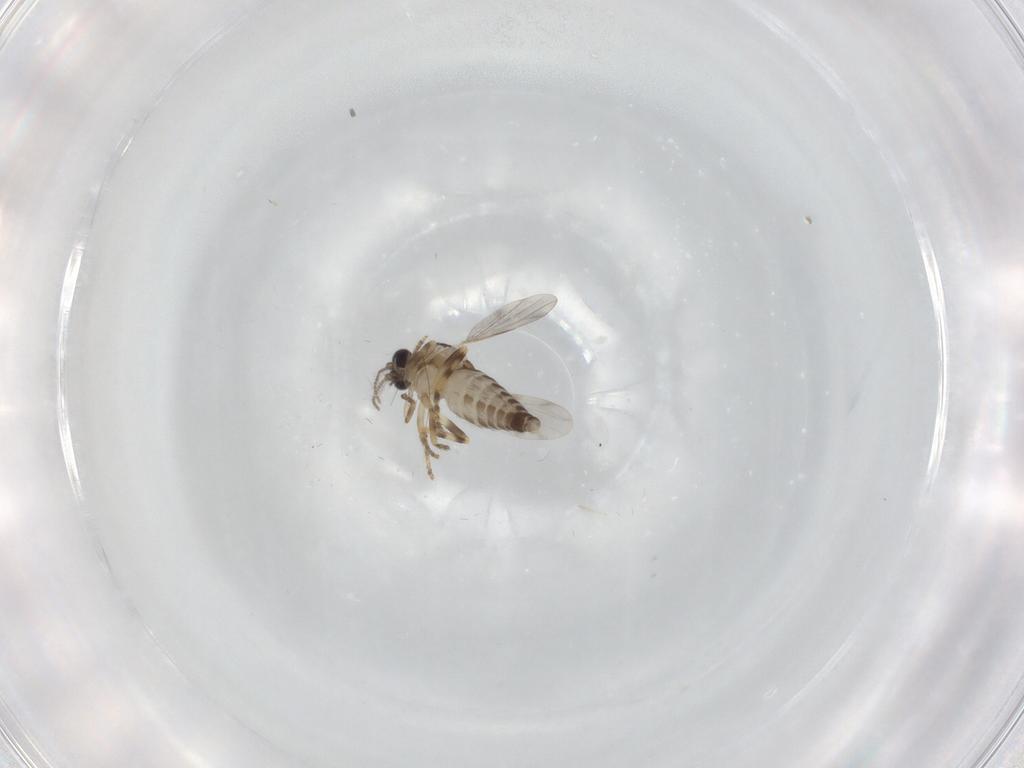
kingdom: Animalia
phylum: Arthropoda
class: Insecta
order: Diptera
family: Ceratopogonidae
